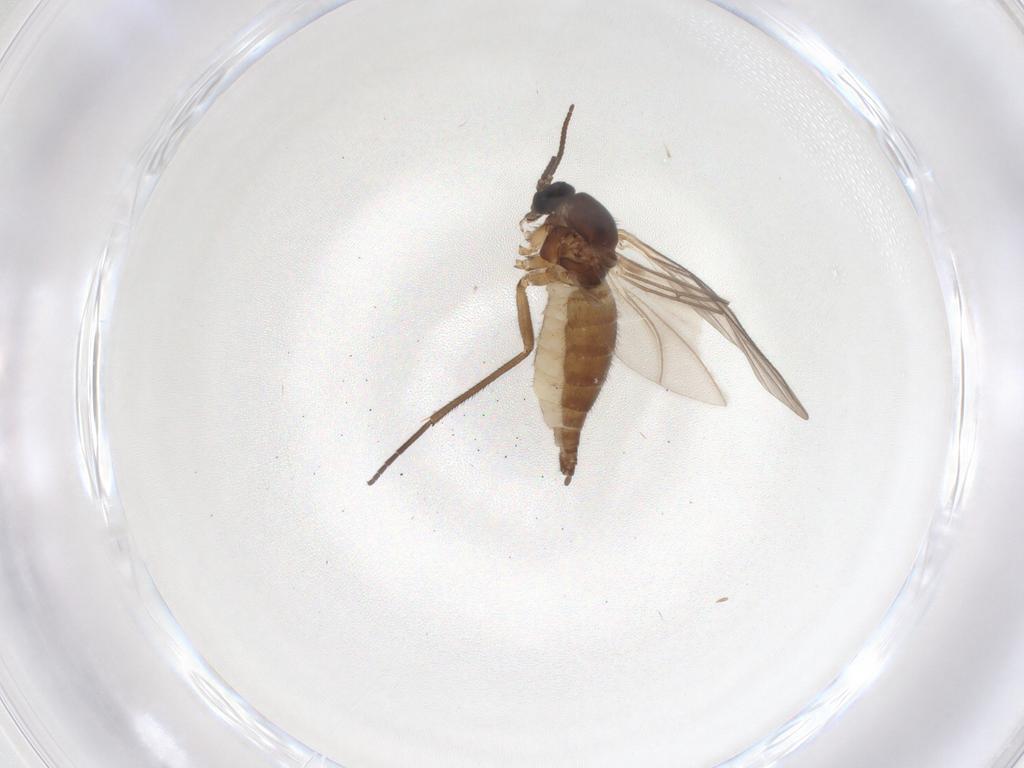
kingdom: Animalia
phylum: Arthropoda
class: Insecta
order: Diptera
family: Sciaridae
